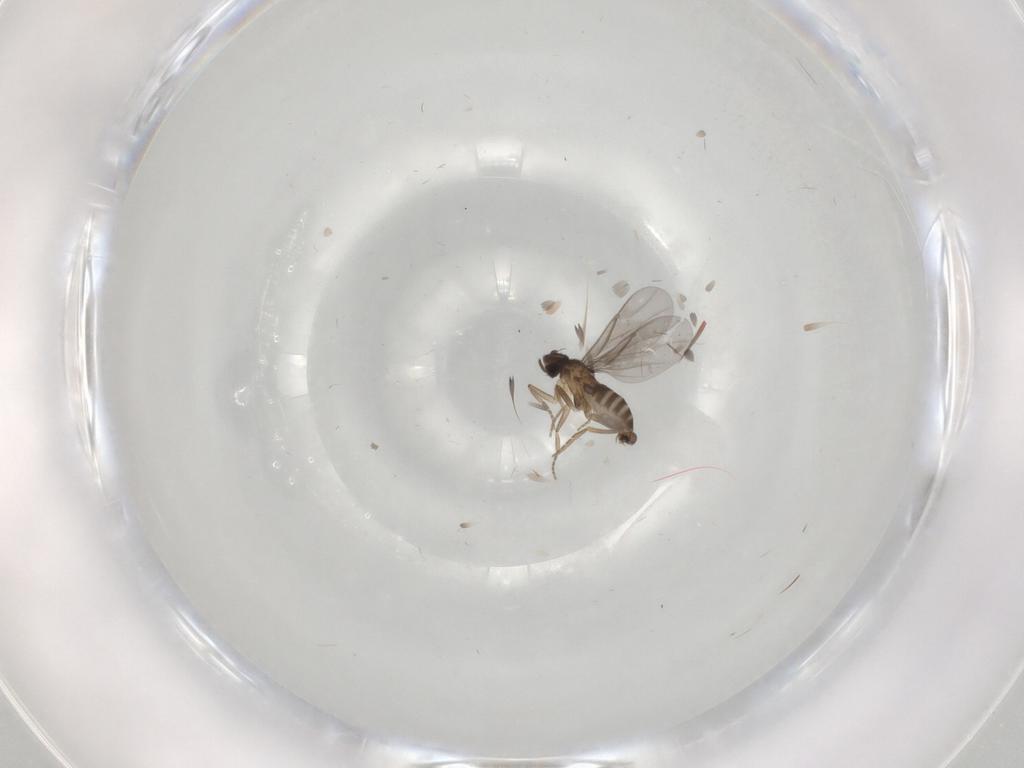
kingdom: Animalia
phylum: Arthropoda
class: Insecta
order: Diptera
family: Cecidomyiidae
